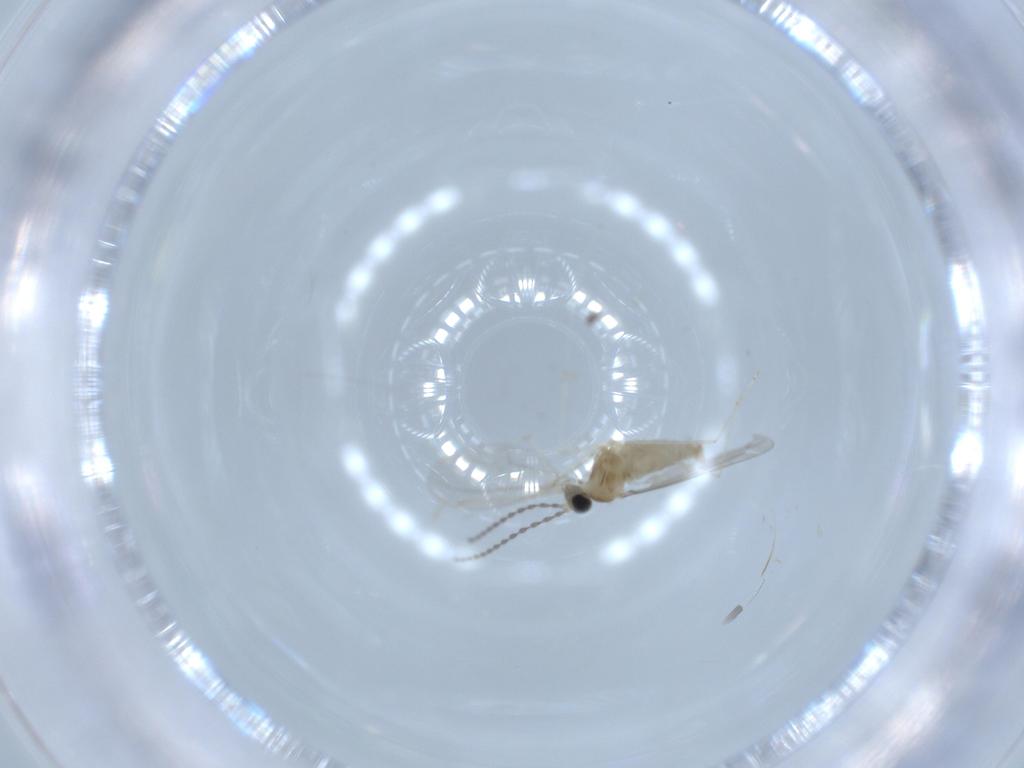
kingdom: Animalia
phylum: Arthropoda
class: Insecta
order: Diptera
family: Cecidomyiidae
